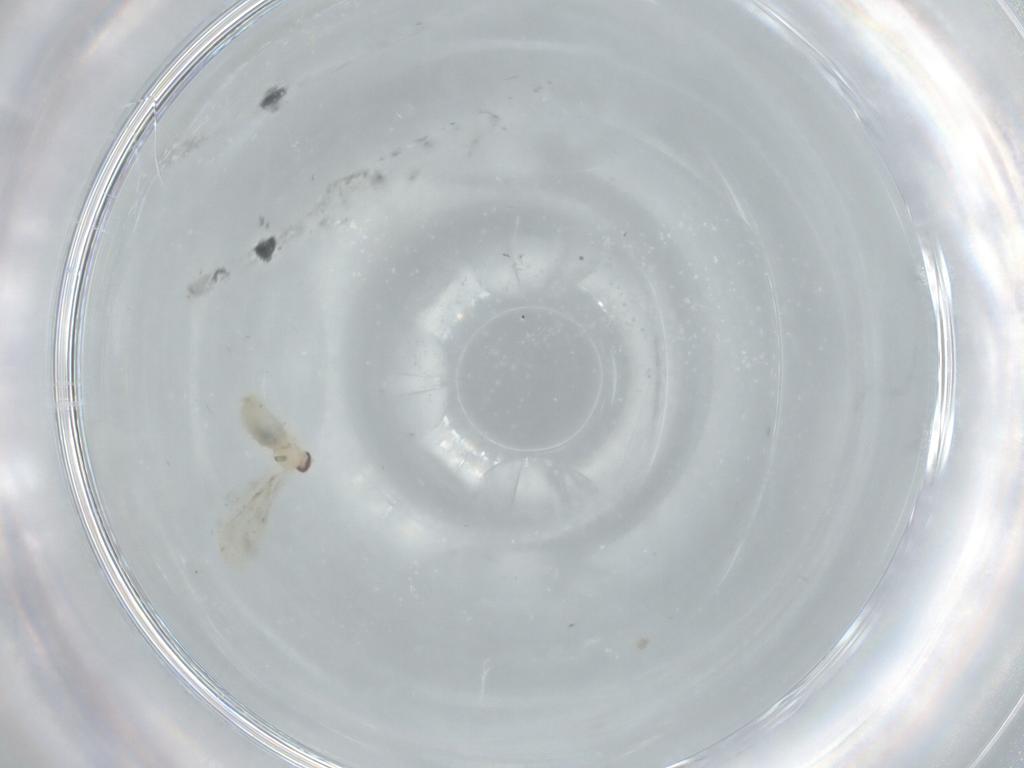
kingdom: Animalia
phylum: Arthropoda
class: Insecta
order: Diptera
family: Cecidomyiidae
